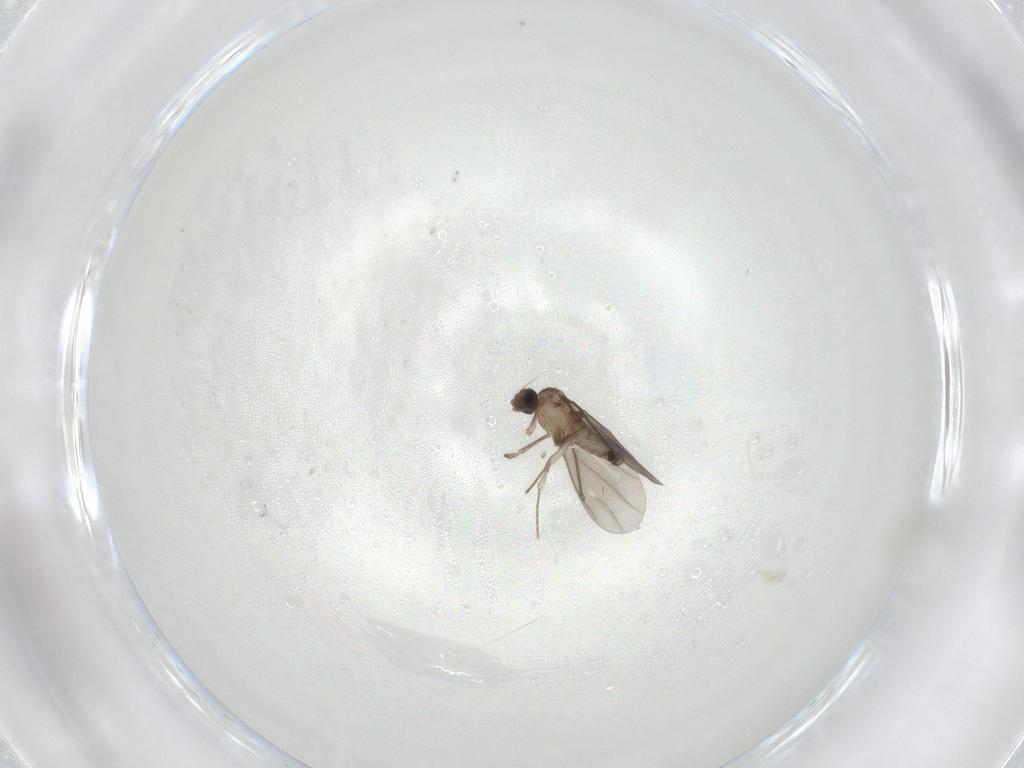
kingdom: Animalia
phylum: Arthropoda
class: Insecta
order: Diptera
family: Phoridae
